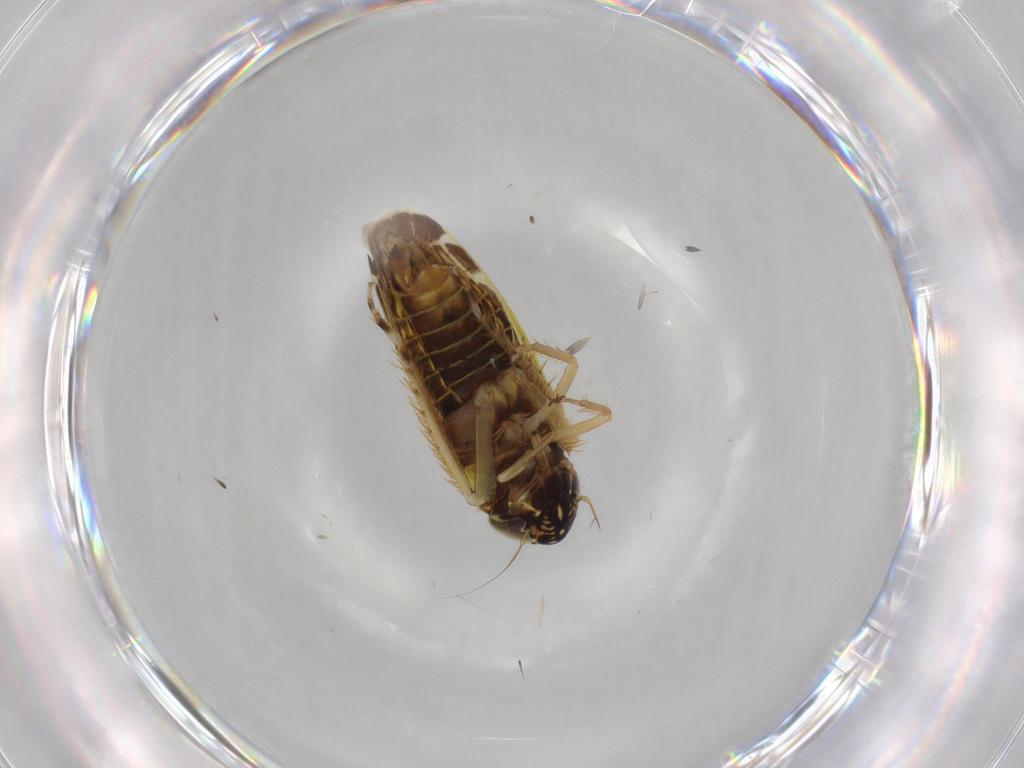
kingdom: Animalia
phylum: Arthropoda
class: Insecta
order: Hemiptera
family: Cicadellidae
